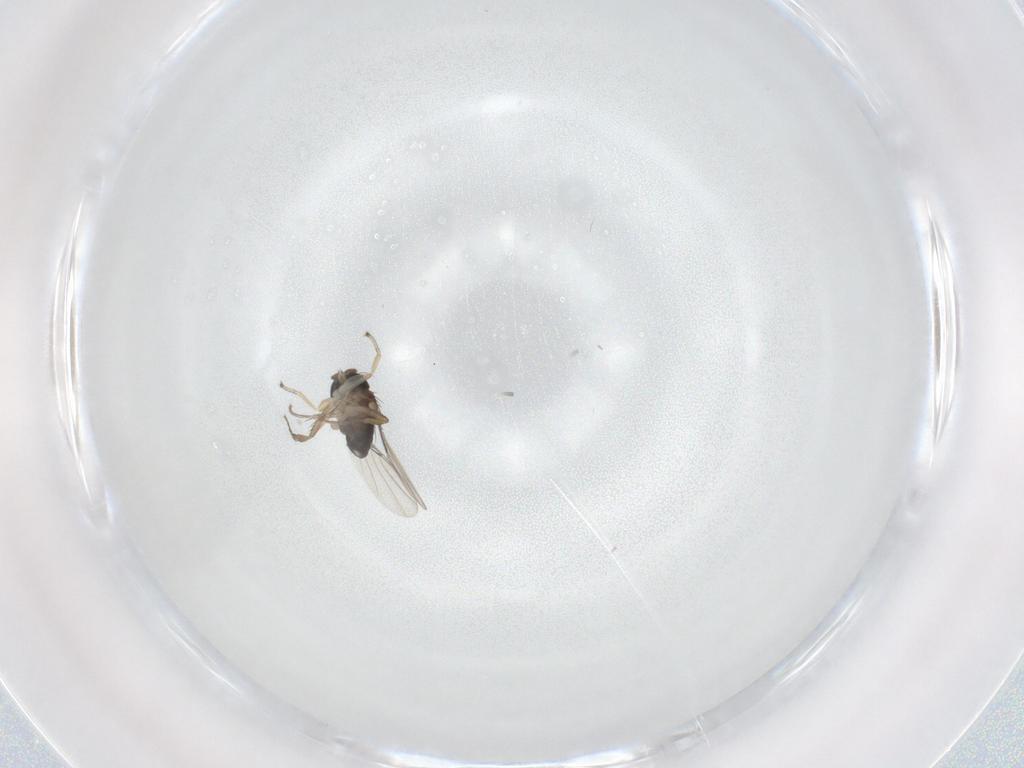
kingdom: Animalia
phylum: Arthropoda
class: Insecta
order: Diptera
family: Phoridae
